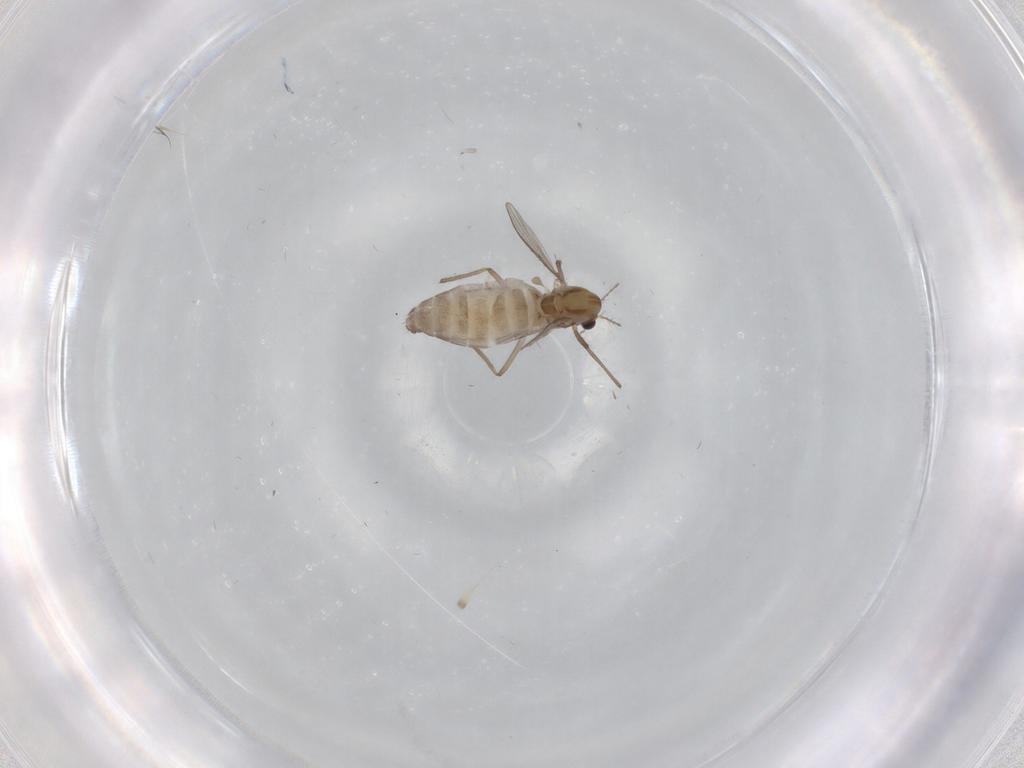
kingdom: Animalia
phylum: Arthropoda
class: Insecta
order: Diptera
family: Chironomidae
